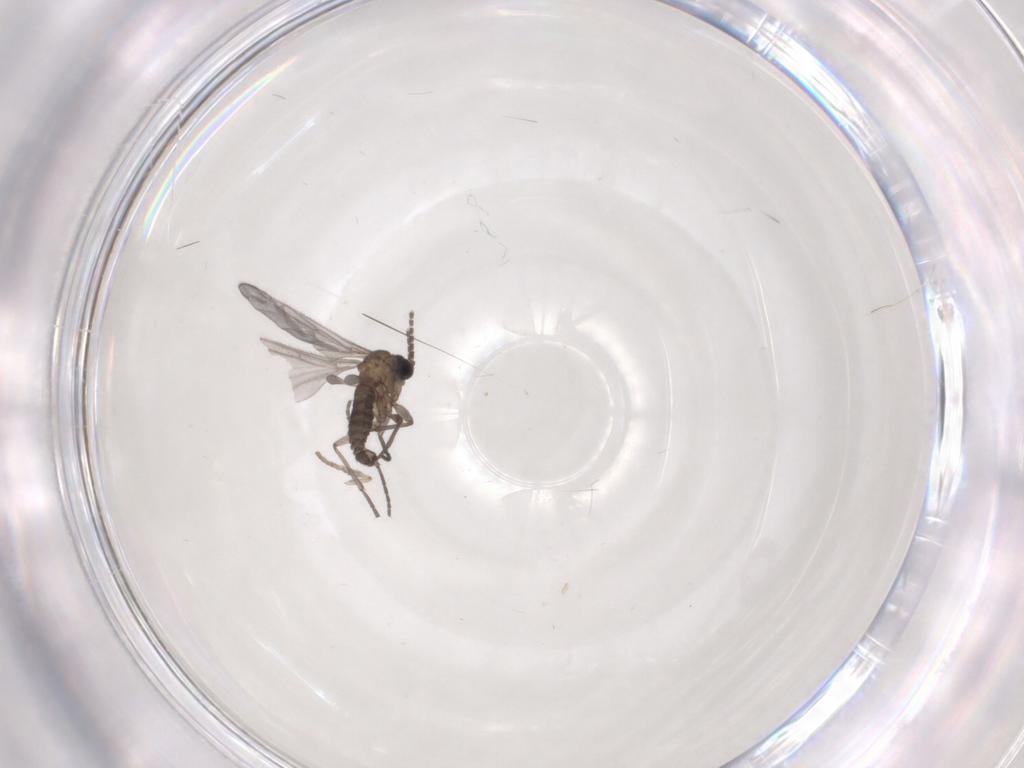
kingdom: Animalia
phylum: Arthropoda
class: Insecta
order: Diptera
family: Sciaridae
